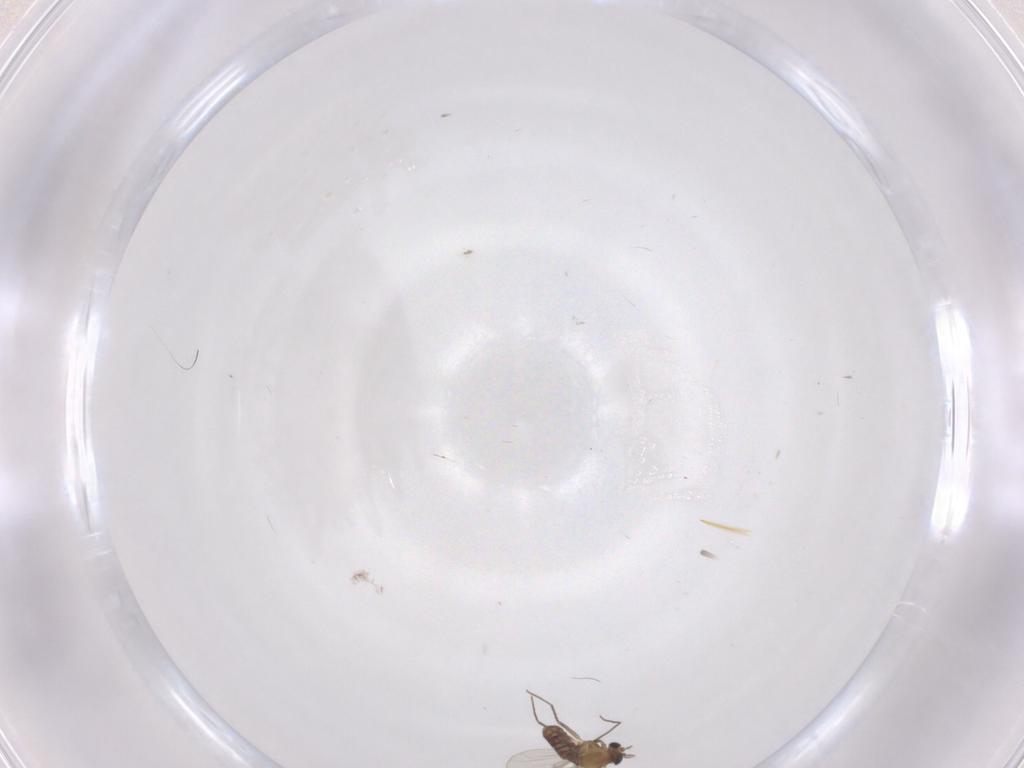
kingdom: Animalia
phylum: Arthropoda
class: Insecta
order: Diptera
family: Chironomidae
